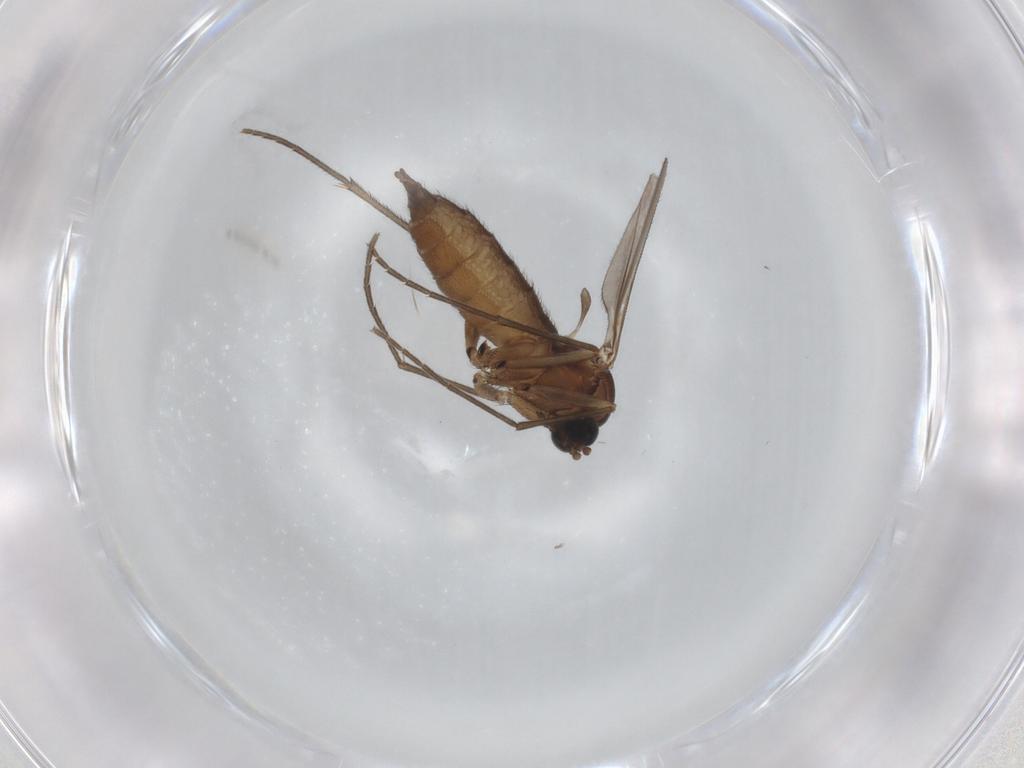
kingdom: Animalia
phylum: Arthropoda
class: Insecta
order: Diptera
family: Sciaridae
